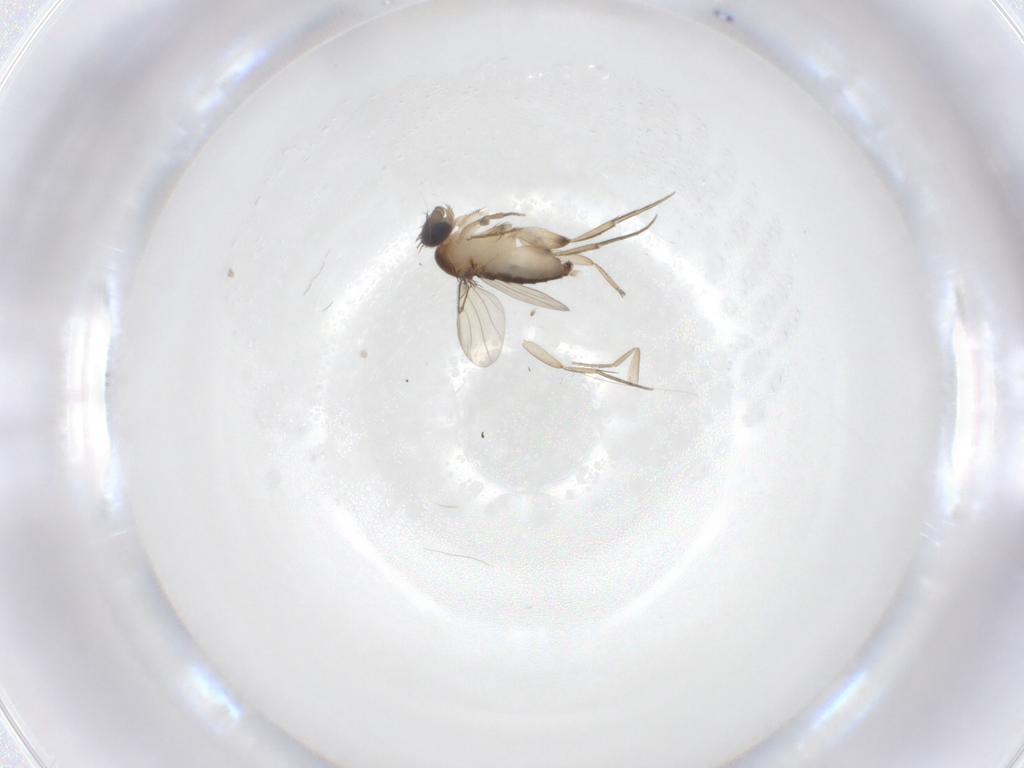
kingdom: Animalia
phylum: Arthropoda
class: Insecta
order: Diptera
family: Phoridae
